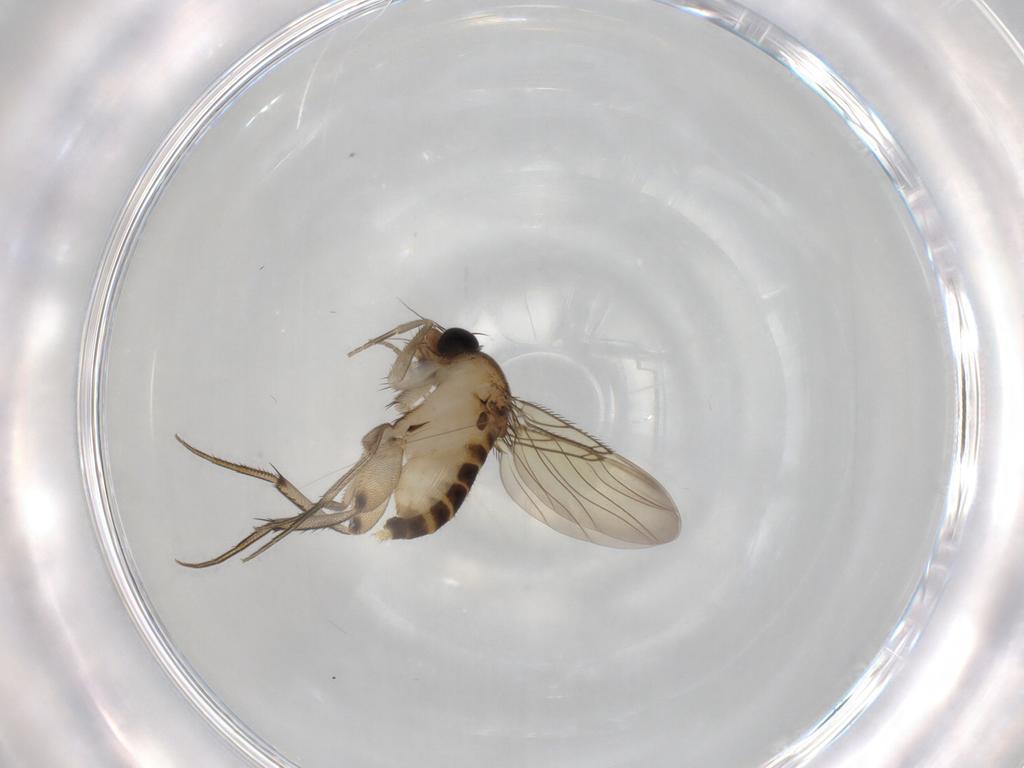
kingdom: Animalia
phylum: Arthropoda
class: Insecta
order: Diptera
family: Phoridae
